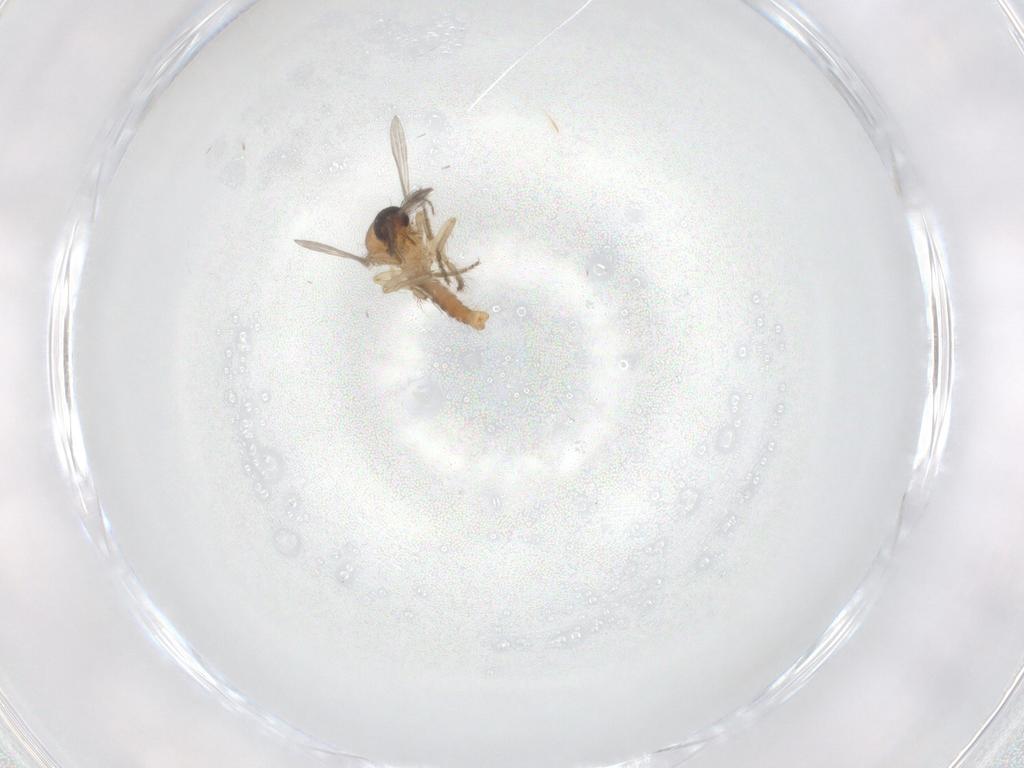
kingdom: Animalia
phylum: Arthropoda
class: Insecta
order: Diptera
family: Ceratopogonidae
